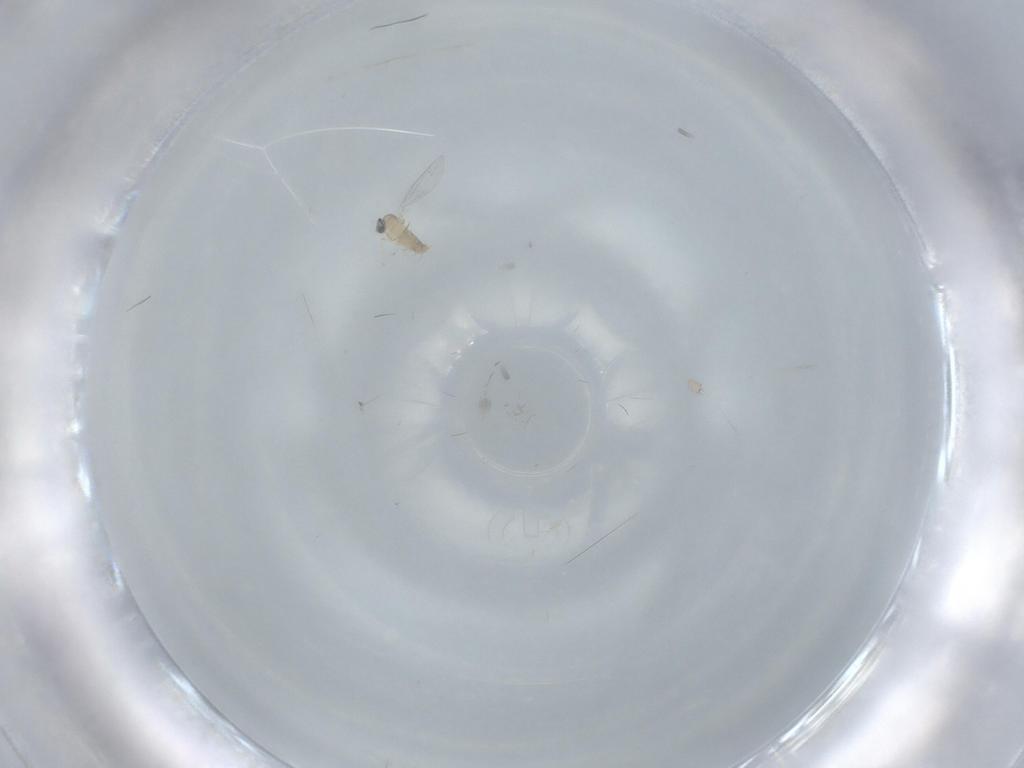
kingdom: Animalia
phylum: Arthropoda
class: Insecta
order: Diptera
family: Cecidomyiidae
